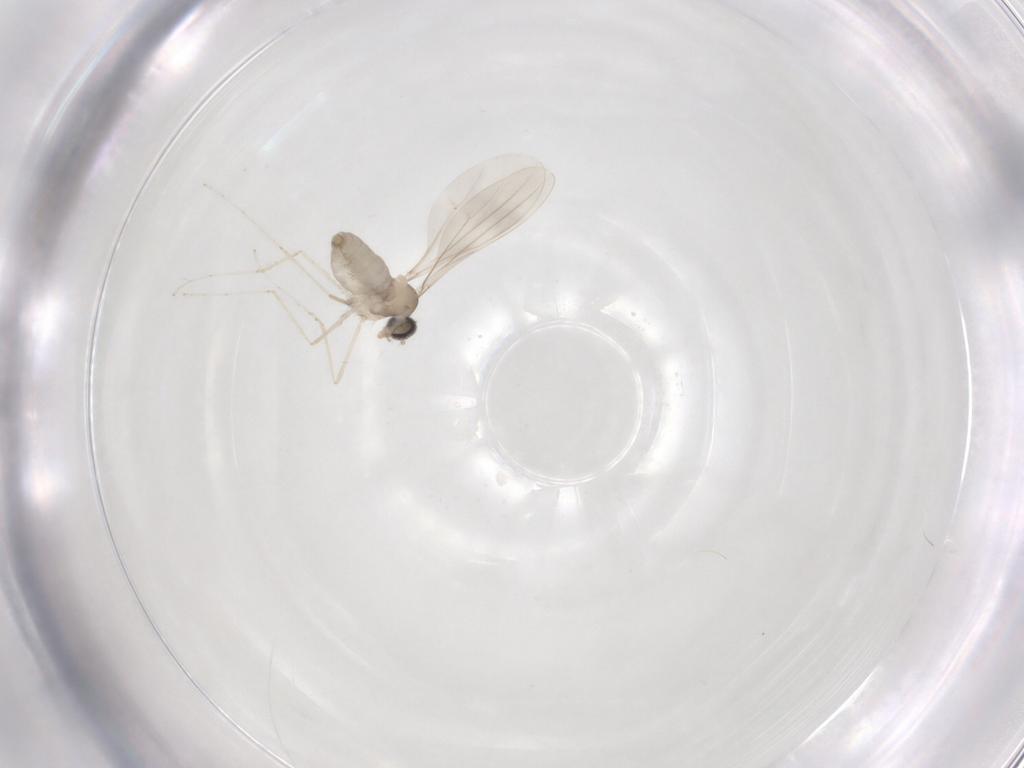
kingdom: Animalia
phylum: Arthropoda
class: Insecta
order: Diptera
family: Cecidomyiidae
